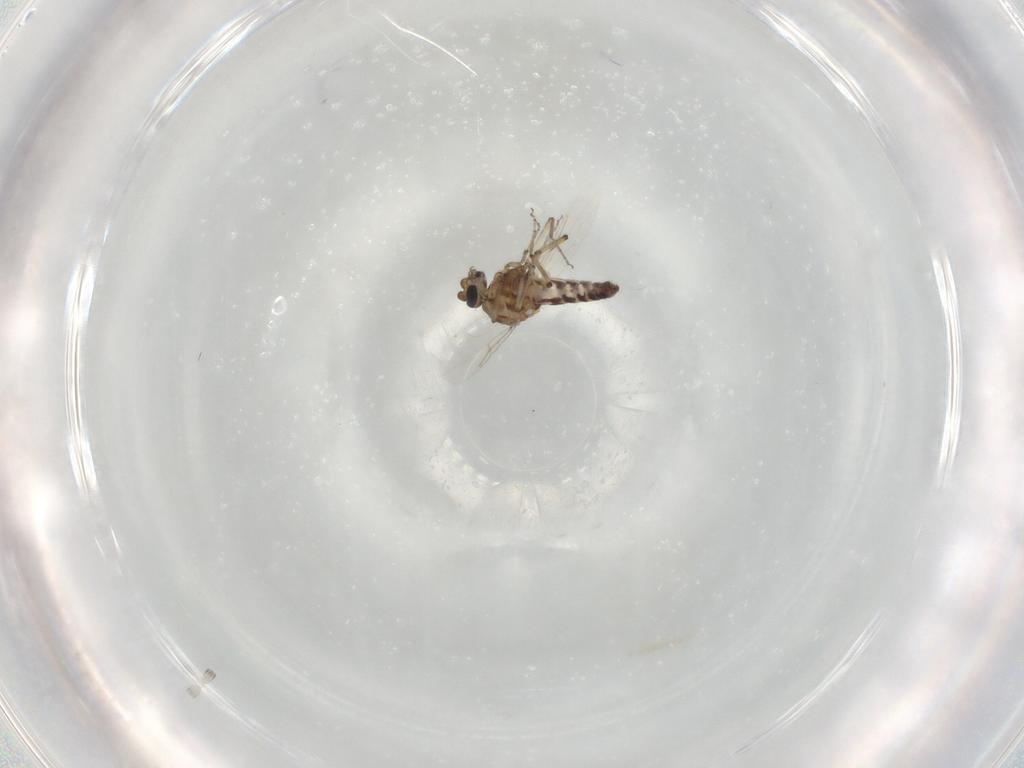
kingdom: Animalia
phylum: Arthropoda
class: Insecta
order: Diptera
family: Ceratopogonidae
